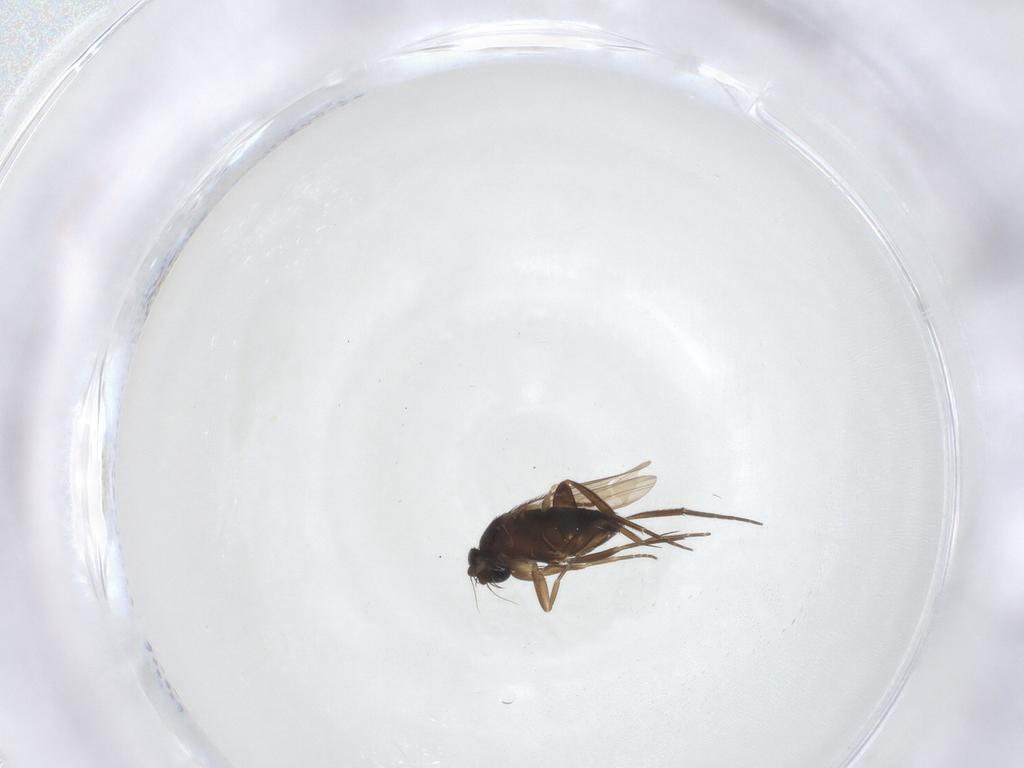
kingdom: Animalia
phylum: Arthropoda
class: Insecta
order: Diptera
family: Phoridae
